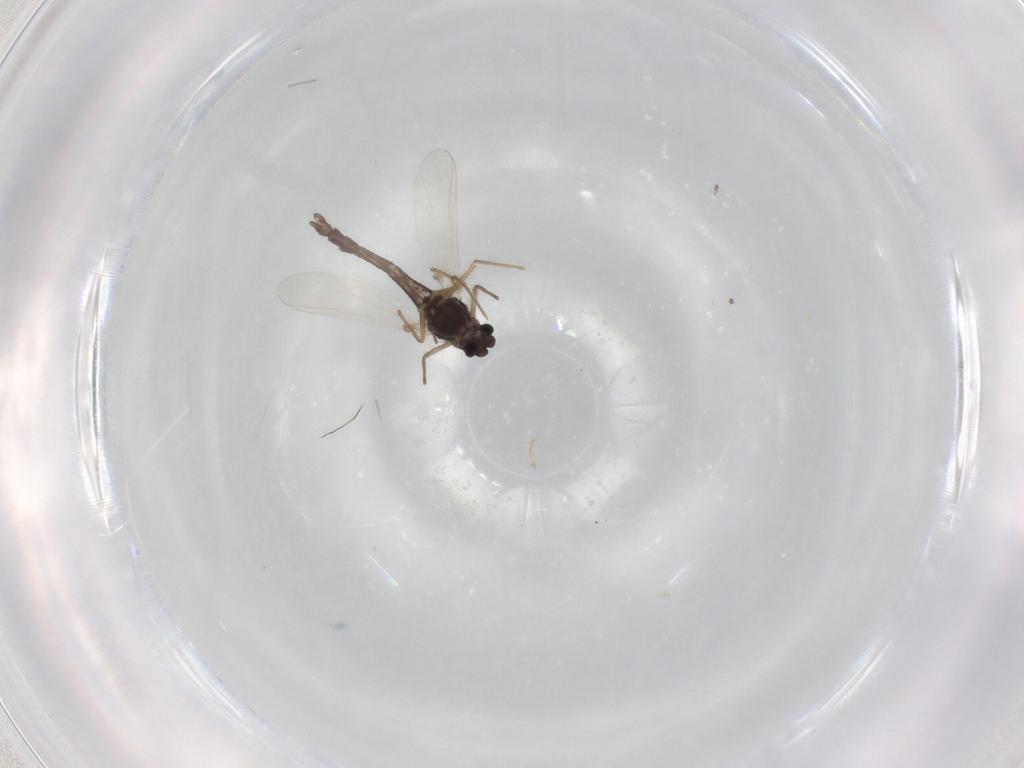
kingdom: Animalia
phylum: Arthropoda
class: Insecta
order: Diptera
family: Chironomidae
